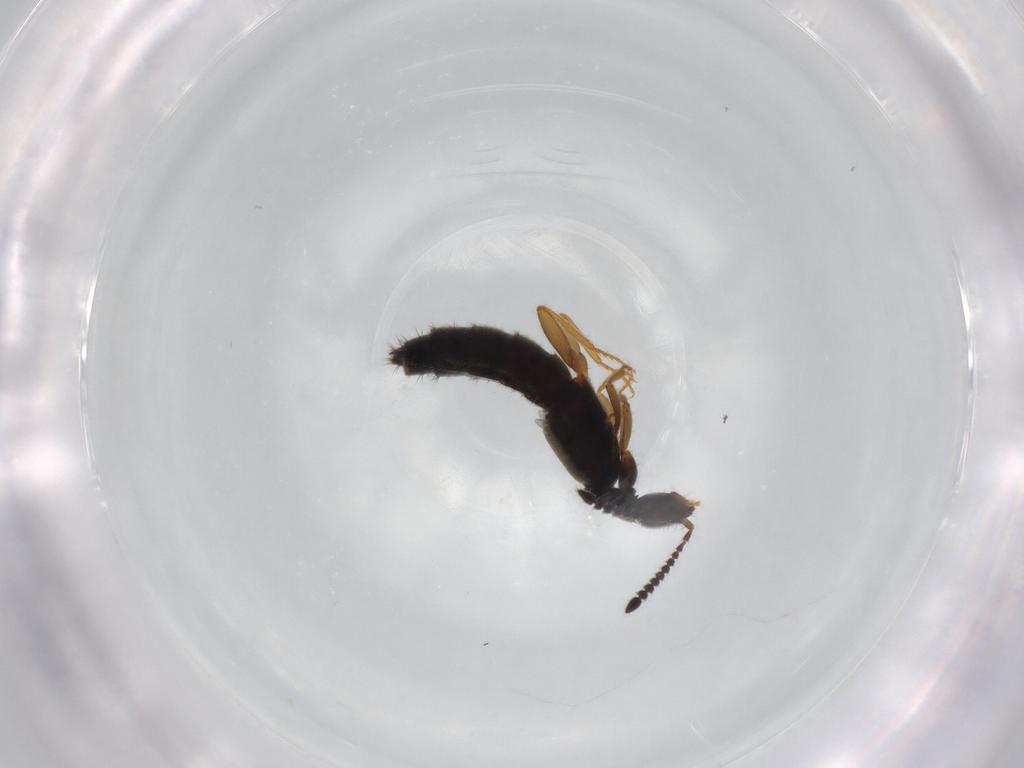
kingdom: Animalia
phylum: Arthropoda
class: Insecta
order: Coleoptera
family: Staphylinidae
